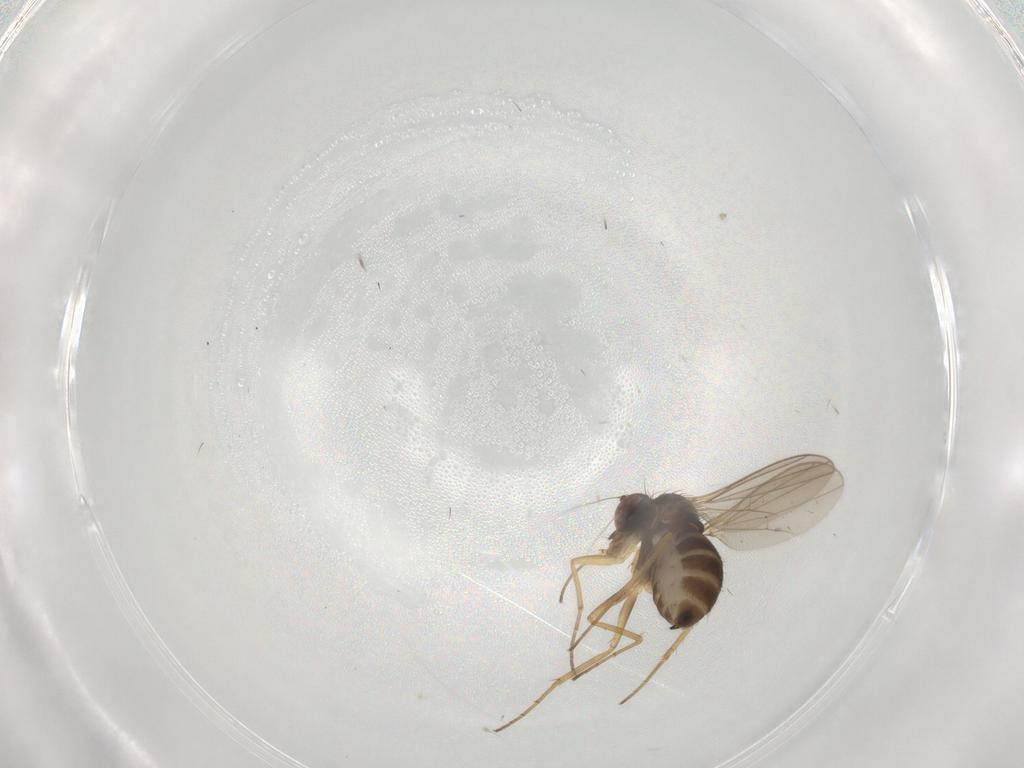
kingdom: Animalia
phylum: Arthropoda
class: Insecta
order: Diptera
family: Dolichopodidae
